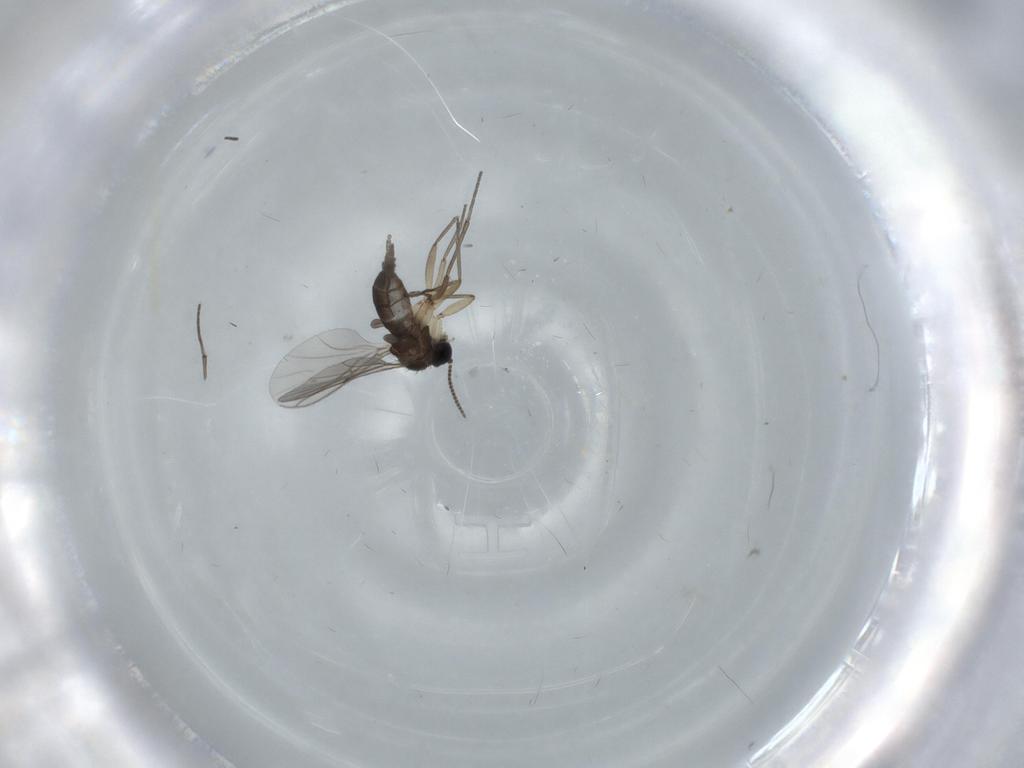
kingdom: Animalia
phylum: Arthropoda
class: Insecta
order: Diptera
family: Sciaridae
